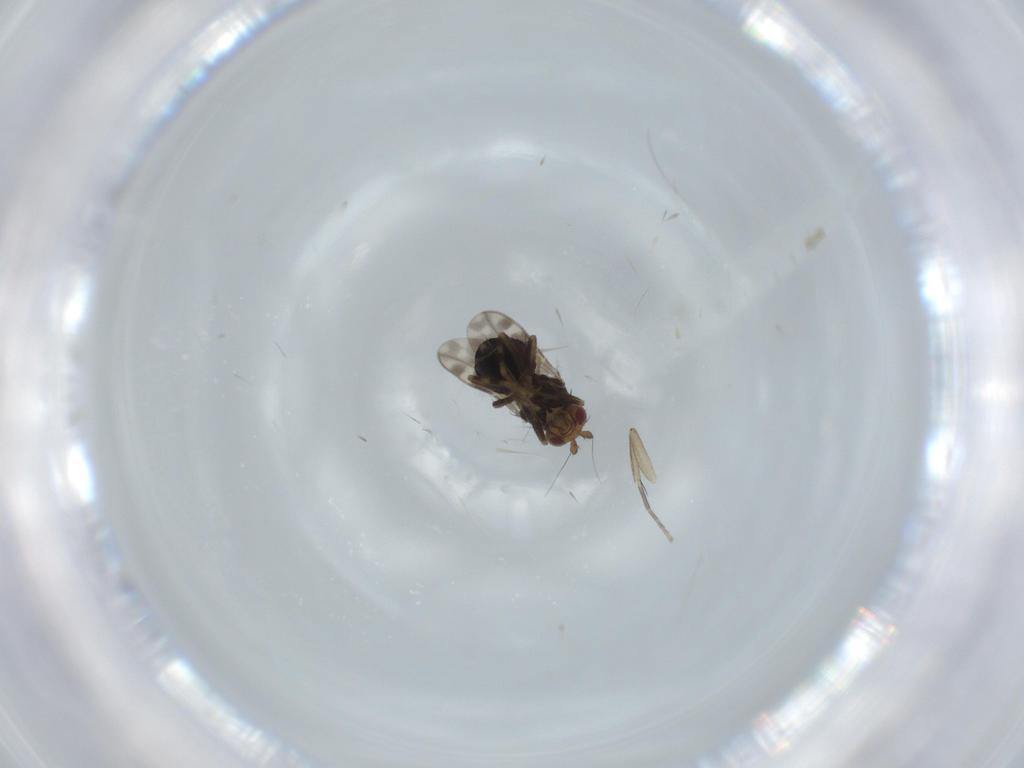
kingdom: Animalia
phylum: Arthropoda
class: Insecta
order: Diptera
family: Sphaeroceridae
